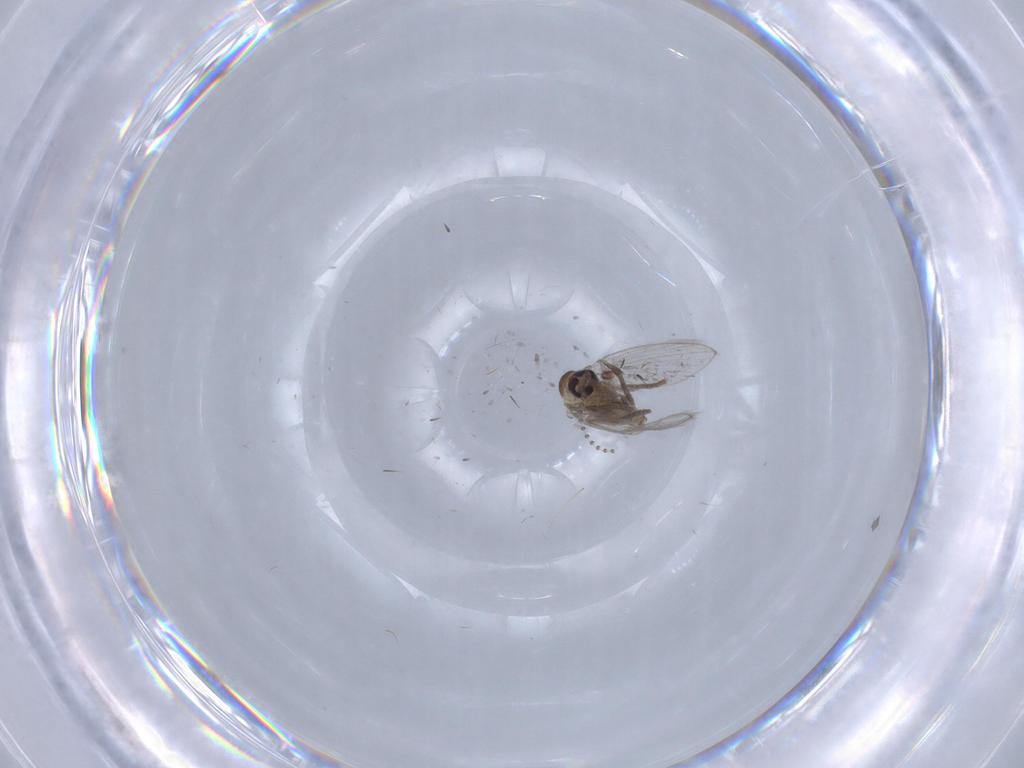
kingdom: Animalia
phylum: Arthropoda
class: Insecta
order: Diptera
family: Psychodidae
